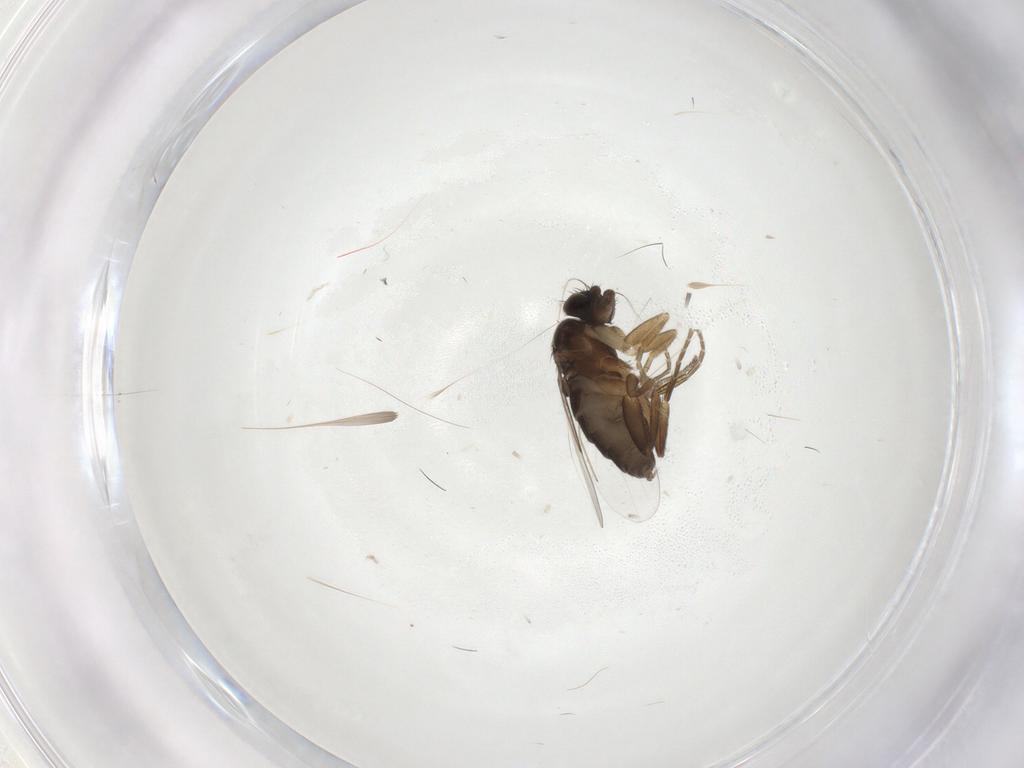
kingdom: Animalia
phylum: Arthropoda
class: Insecta
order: Diptera
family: Phoridae
